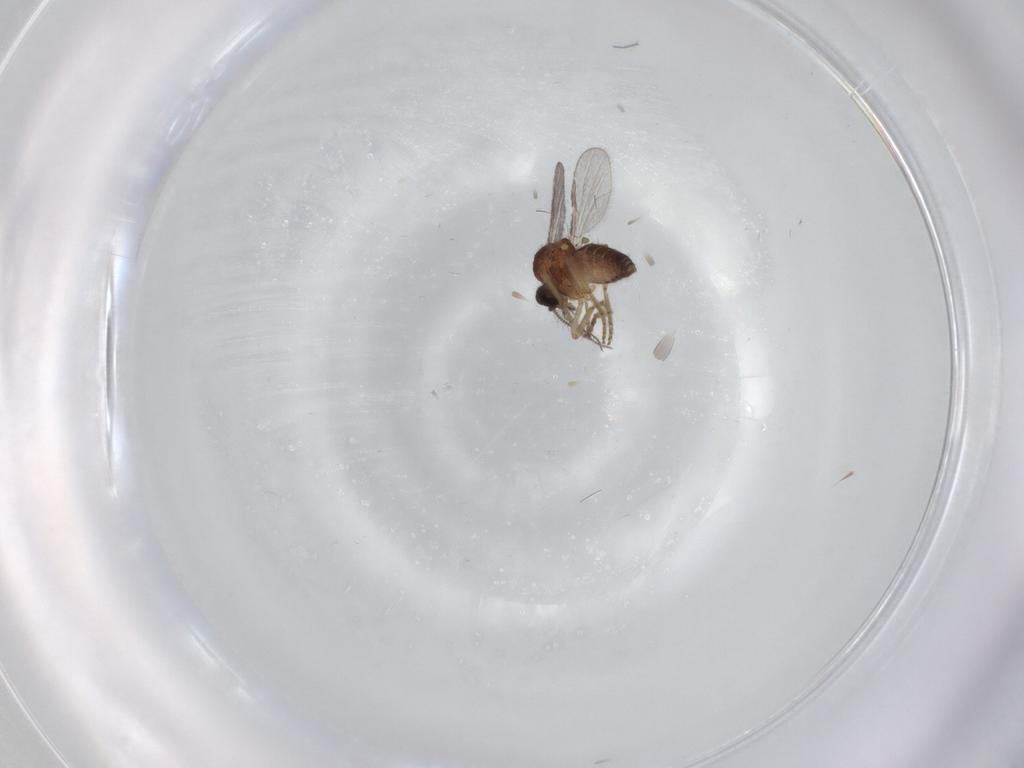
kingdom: Animalia
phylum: Arthropoda
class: Insecta
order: Diptera
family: Ceratopogonidae
